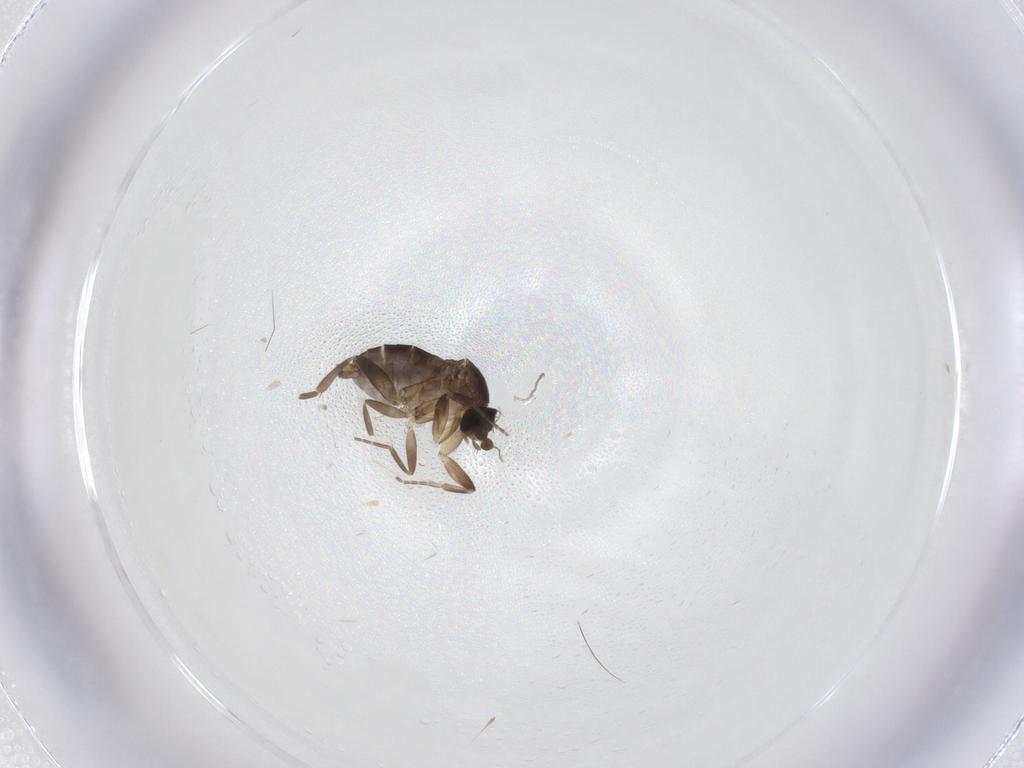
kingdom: Animalia
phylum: Arthropoda
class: Insecta
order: Diptera
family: Phoridae
